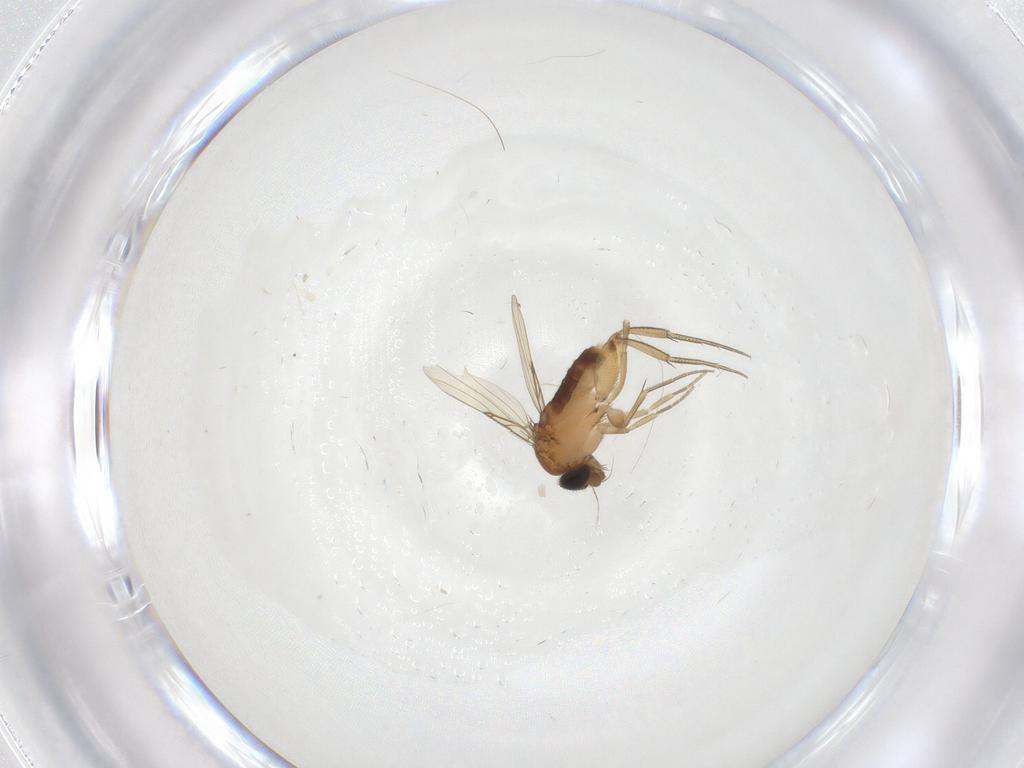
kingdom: Animalia
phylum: Arthropoda
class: Insecta
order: Diptera
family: Phoridae
